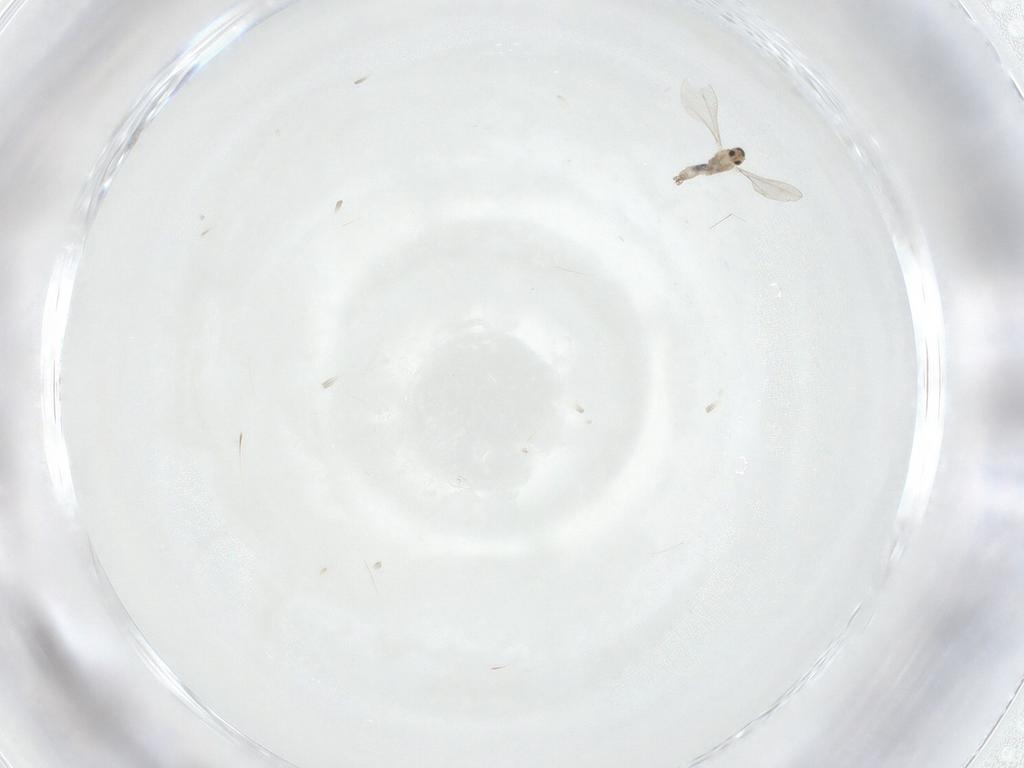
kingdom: Animalia
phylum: Arthropoda
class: Insecta
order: Diptera
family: Cecidomyiidae
